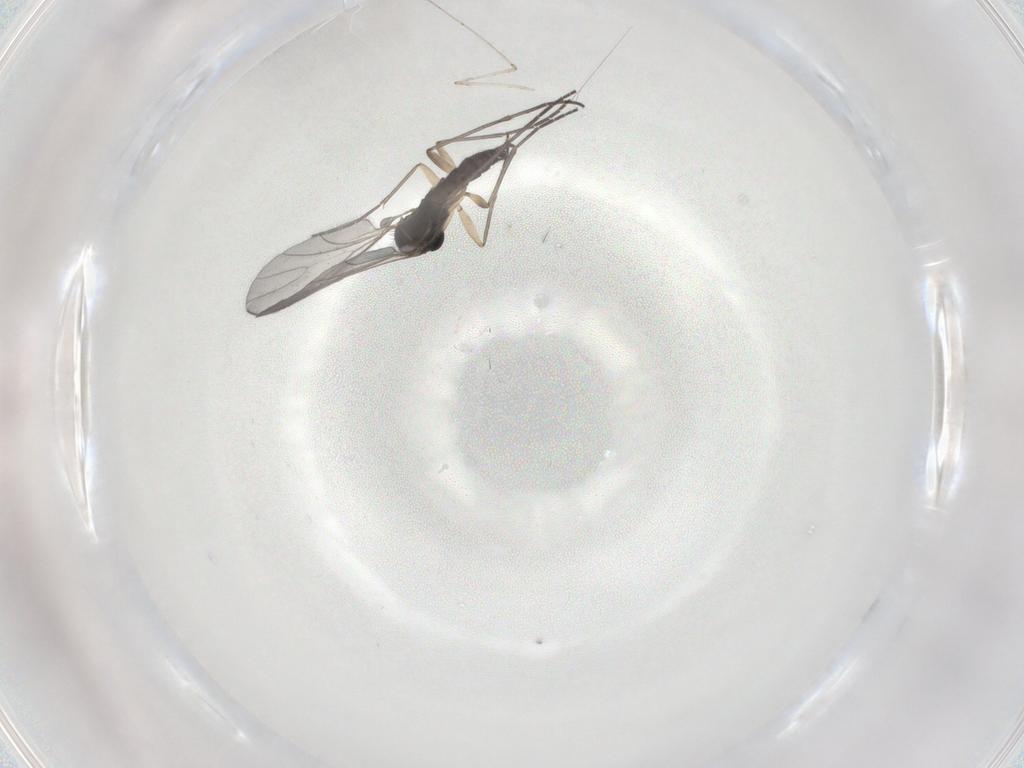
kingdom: Animalia
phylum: Arthropoda
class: Insecta
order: Diptera
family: Sciaridae
